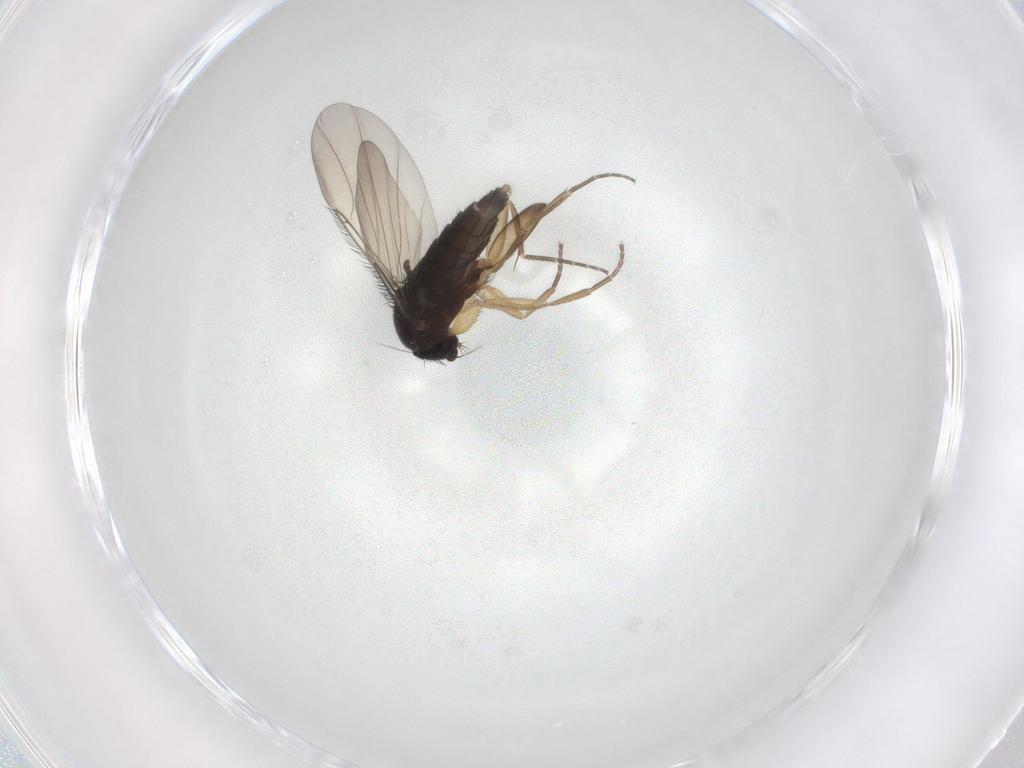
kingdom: Animalia
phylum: Arthropoda
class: Insecta
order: Diptera
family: Phoridae
